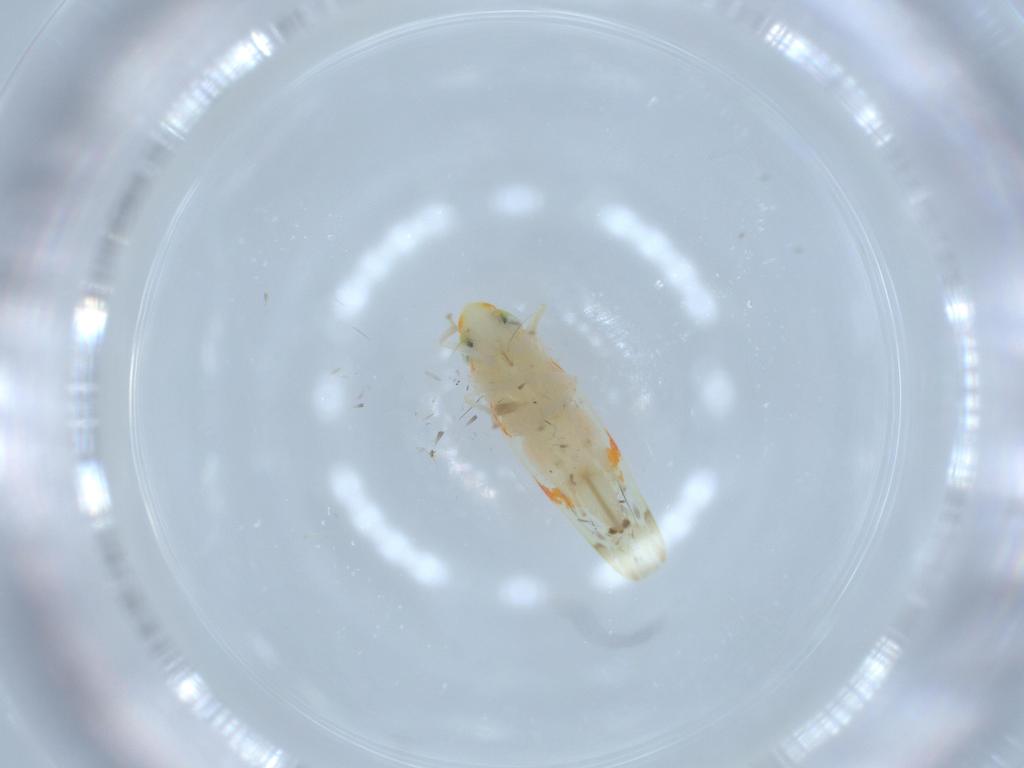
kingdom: Animalia
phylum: Arthropoda
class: Insecta
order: Hemiptera
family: Cicadellidae
